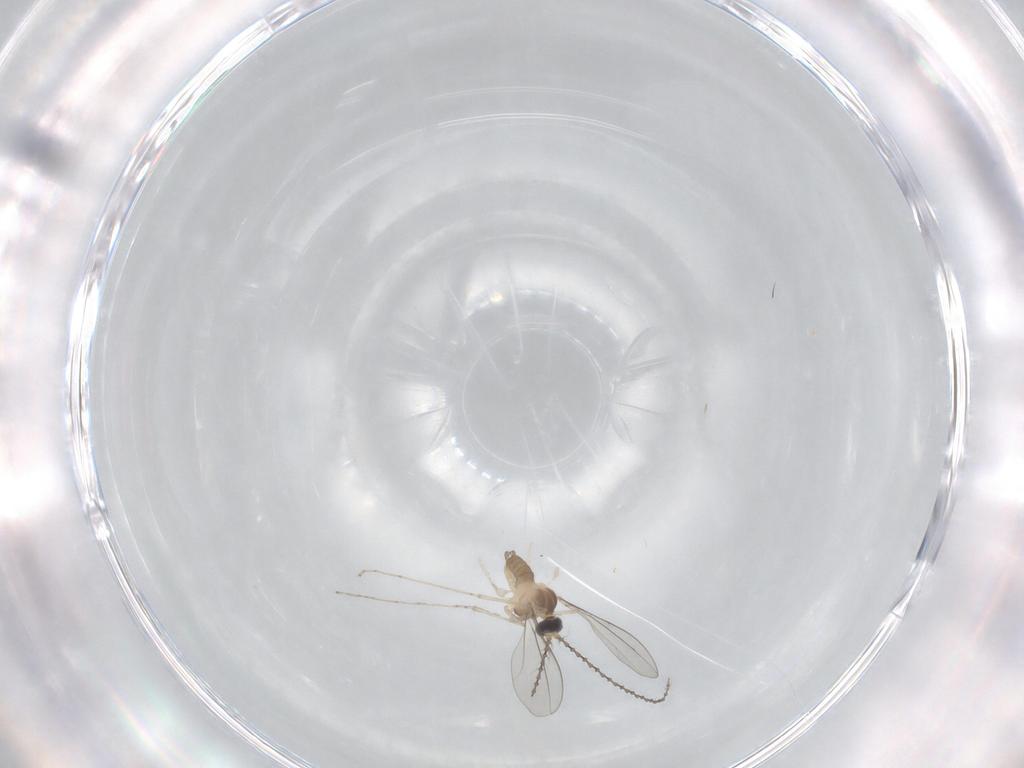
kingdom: Animalia
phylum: Arthropoda
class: Insecta
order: Diptera
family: Cecidomyiidae
